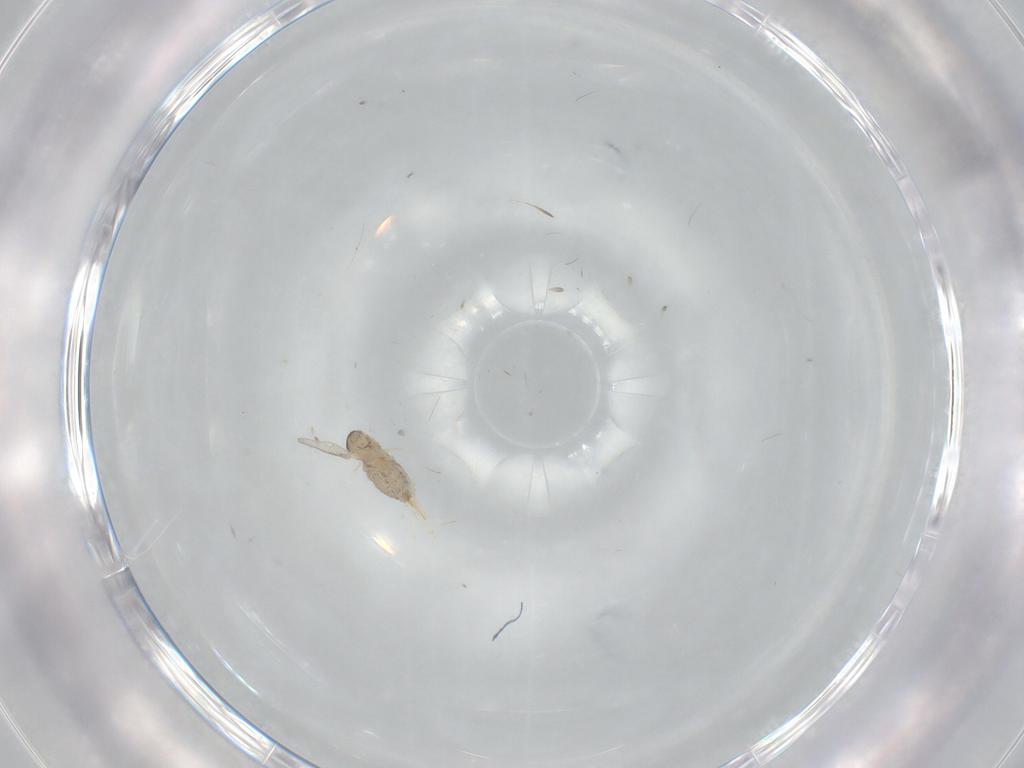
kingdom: Animalia
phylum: Arthropoda
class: Insecta
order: Diptera
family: Cecidomyiidae
